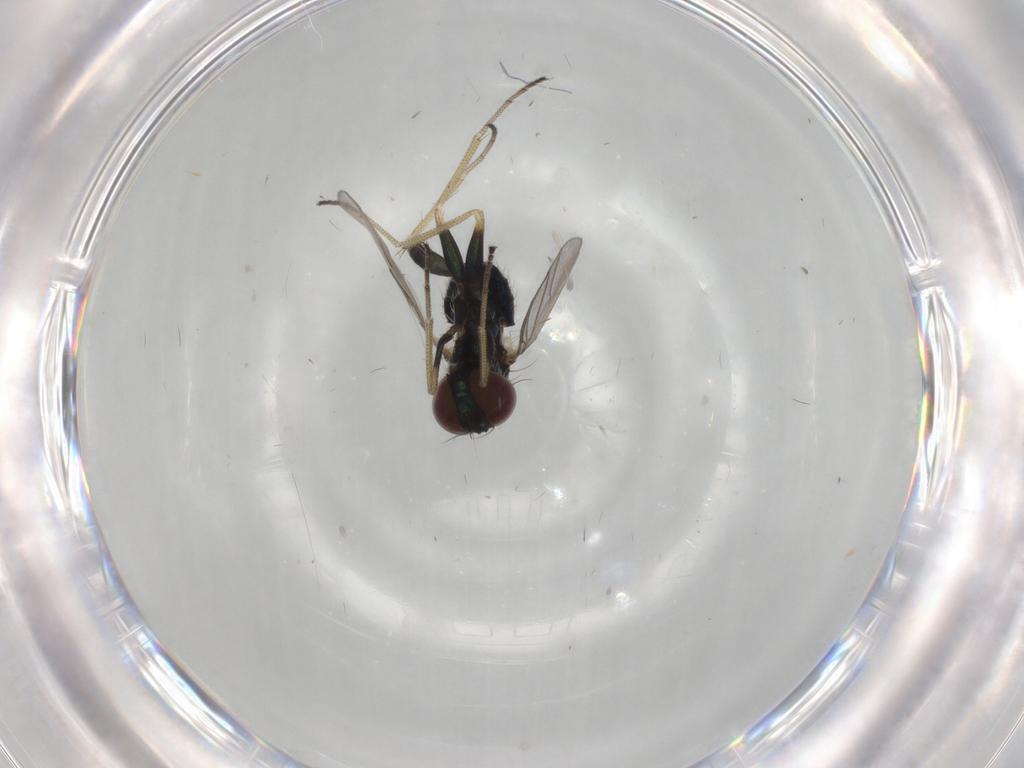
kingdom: Animalia
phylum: Arthropoda
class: Insecta
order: Diptera
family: Dolichopodidae
